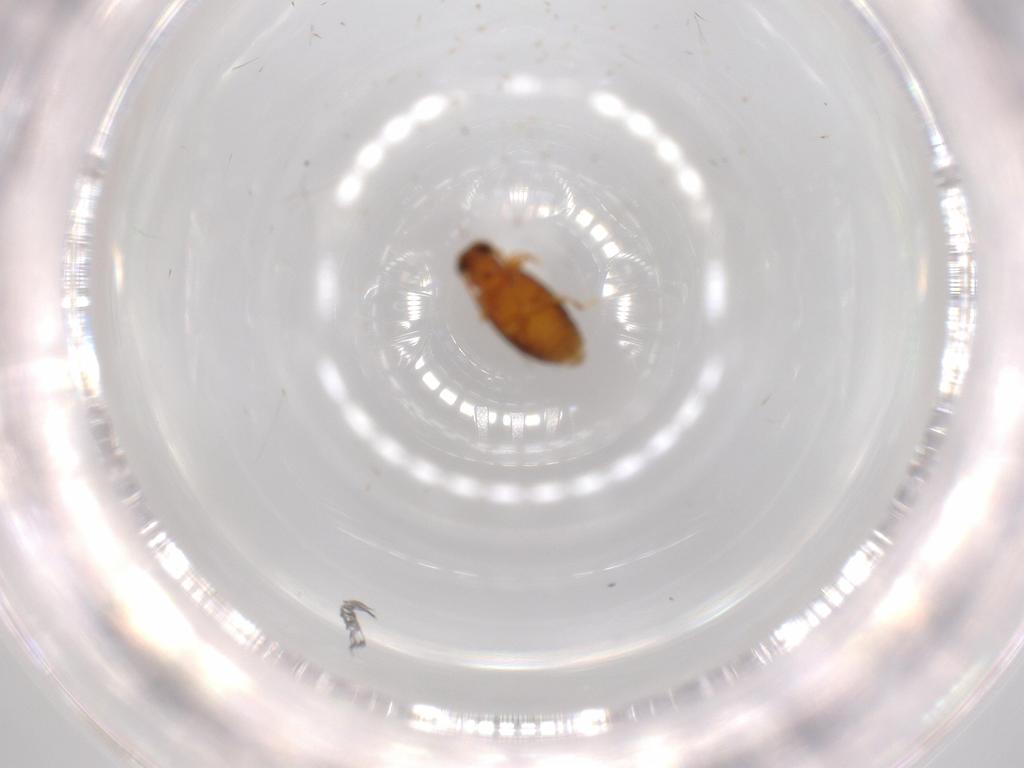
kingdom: Animalia
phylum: Arthropoda
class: Insecta
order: Coleoptera
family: Aderidae
